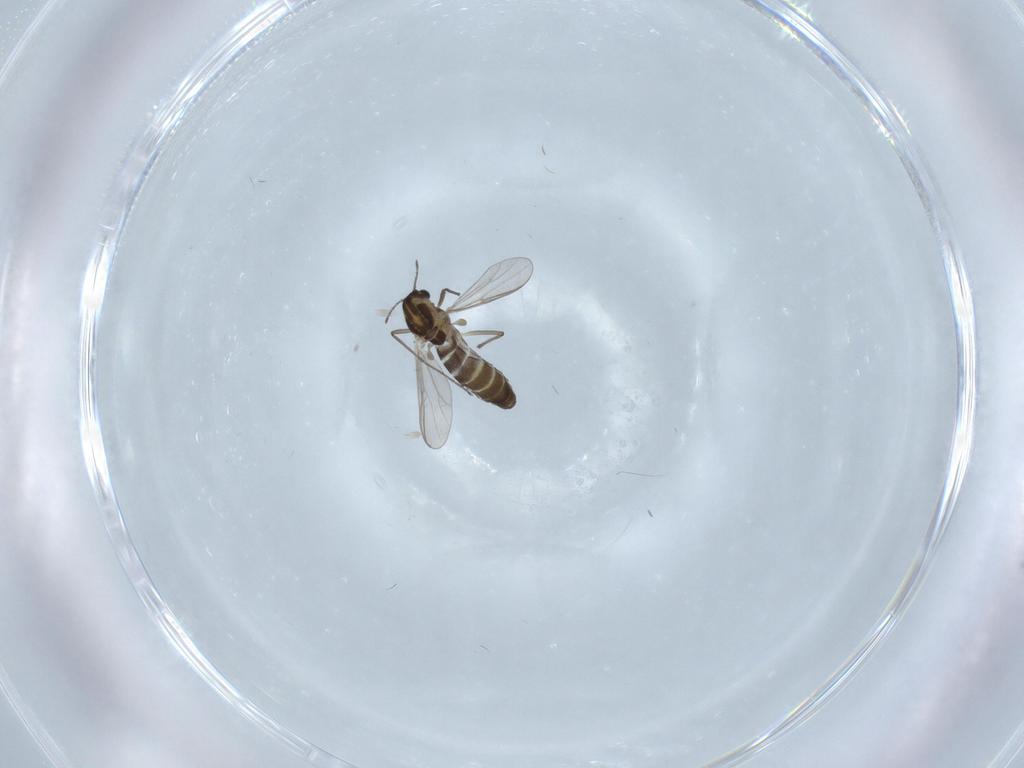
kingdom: Animalia
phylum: Arthropoda
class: Insecta
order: Diptera
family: Chironomidae
